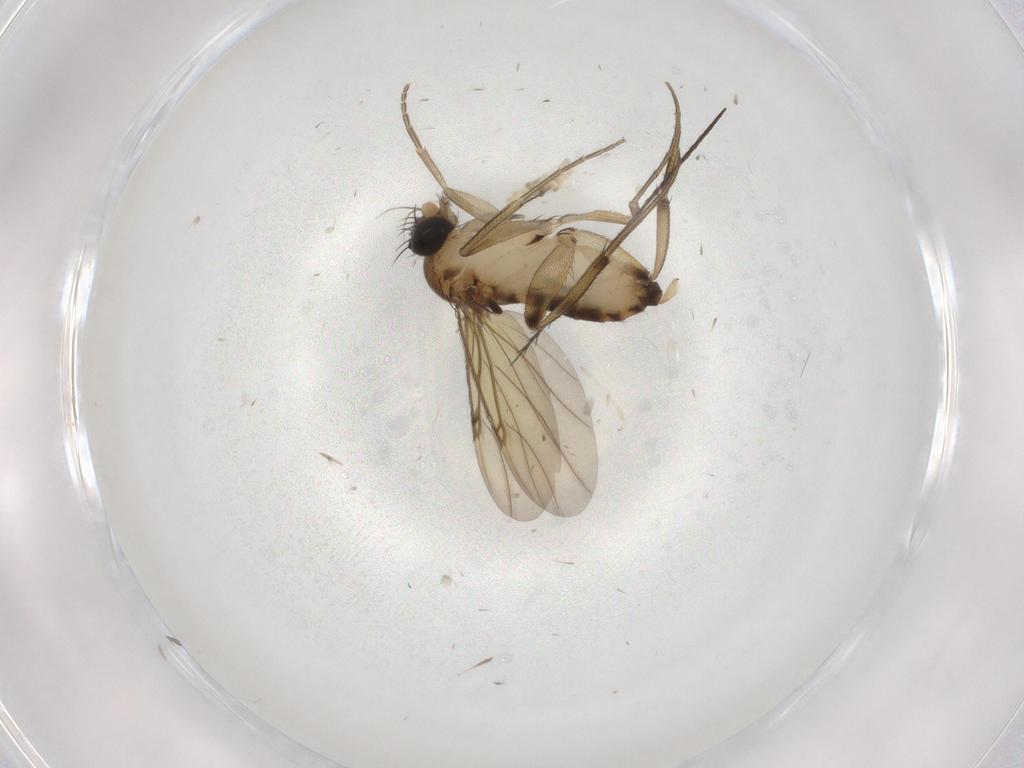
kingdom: Animalia
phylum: Arthropoda
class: Insecta
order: Diptera
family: Phoridae
